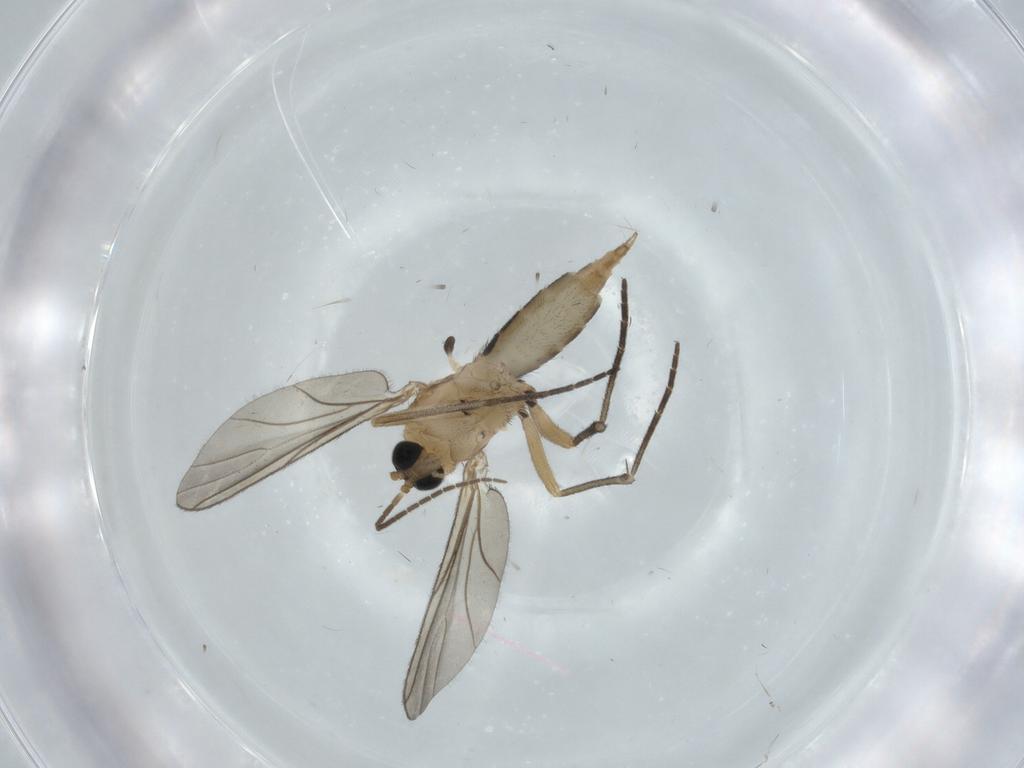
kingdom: Animalia
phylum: Arthropoda
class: Insecta
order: Diptera
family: Sciaridae
